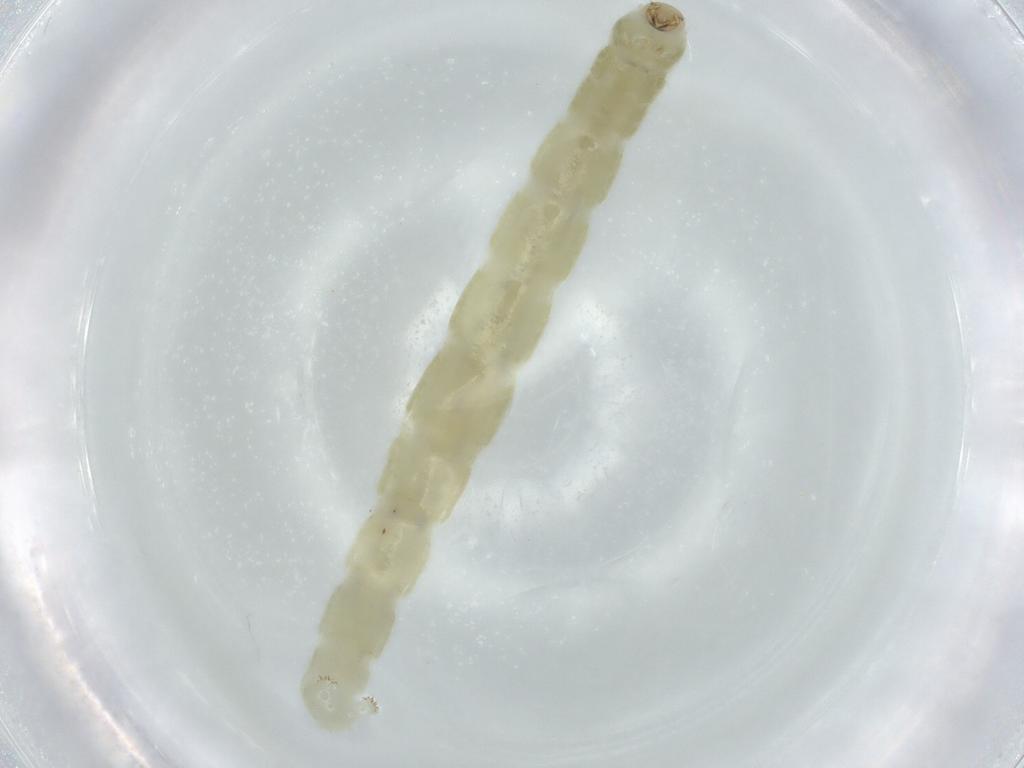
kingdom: Animalia
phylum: Arthropoda
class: Insecta
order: Diptera
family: Chironomidae
